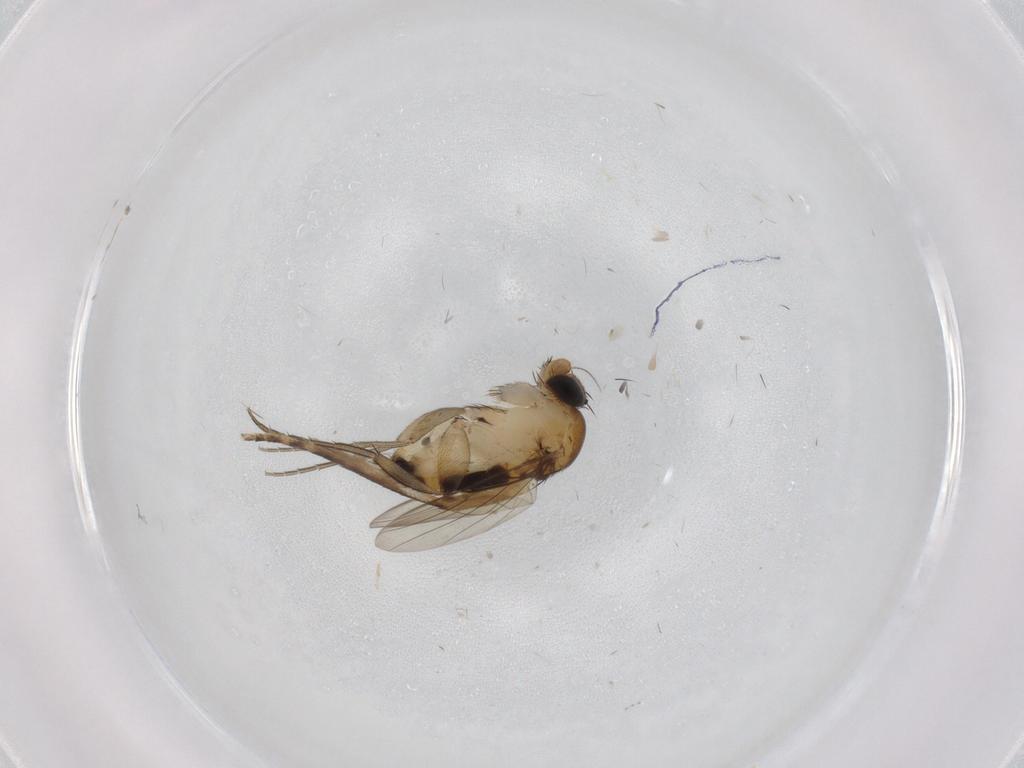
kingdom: Animalia
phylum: Arthropoda
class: Insecta
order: Diptera
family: Phoridae
